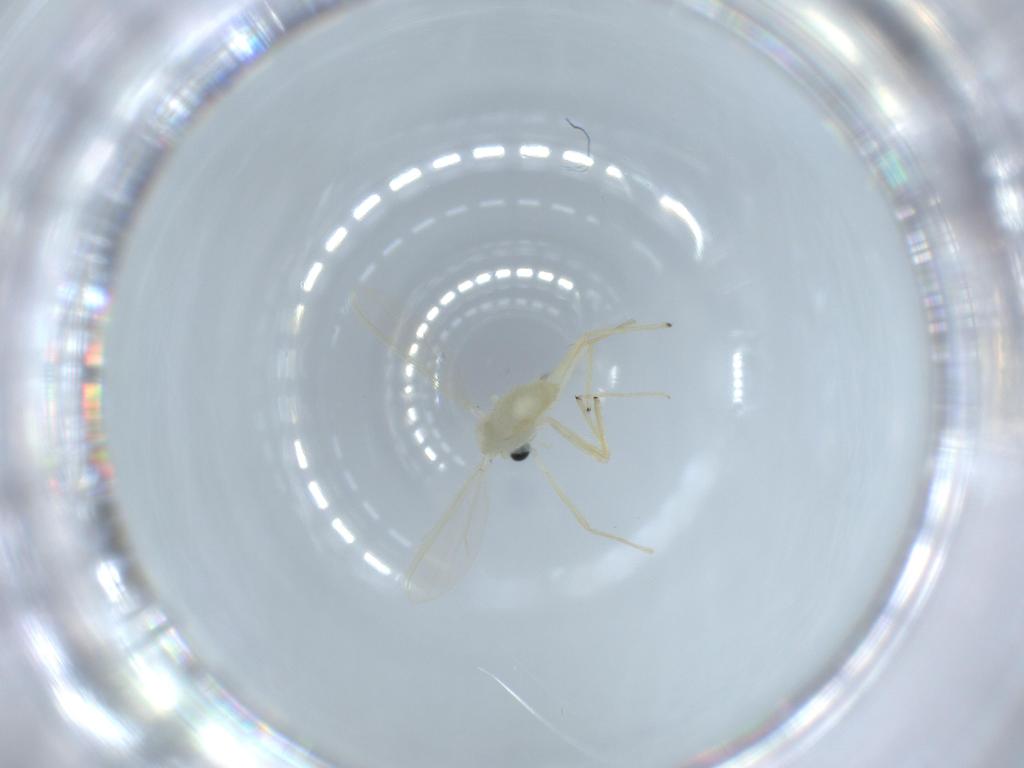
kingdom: Animalia
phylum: Arthropoda
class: Insecta
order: Diptera
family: Chironomidae
